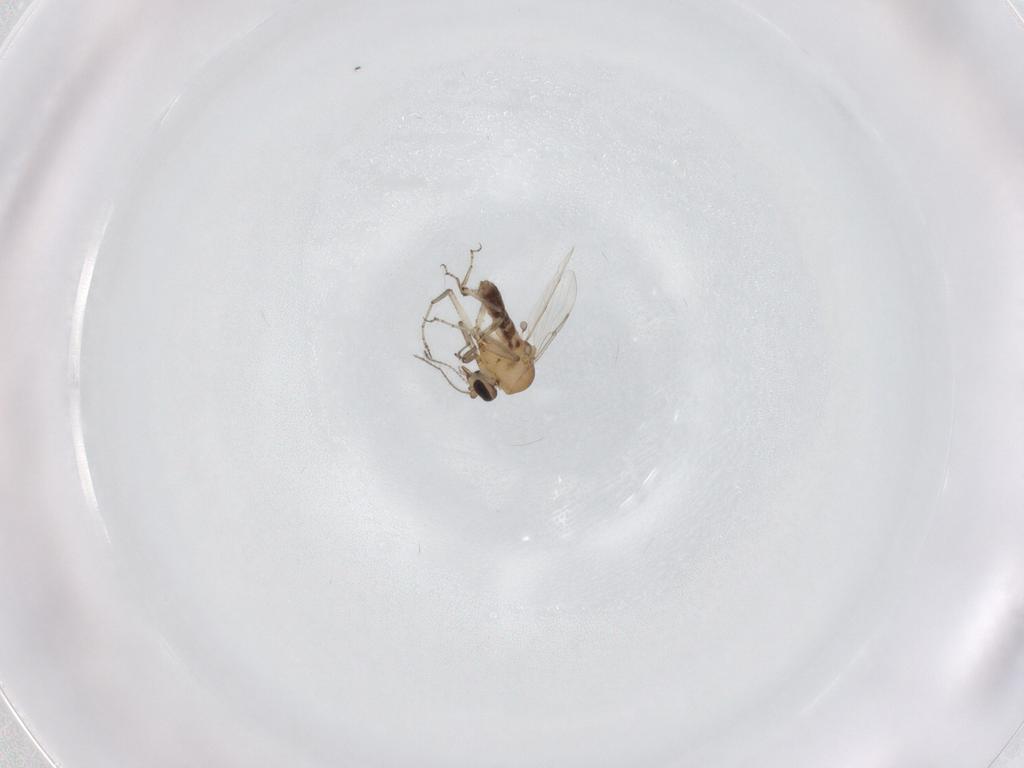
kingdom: Animalia
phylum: Arthropoda
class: Insecta
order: Diptera
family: Ceratopogonidae
